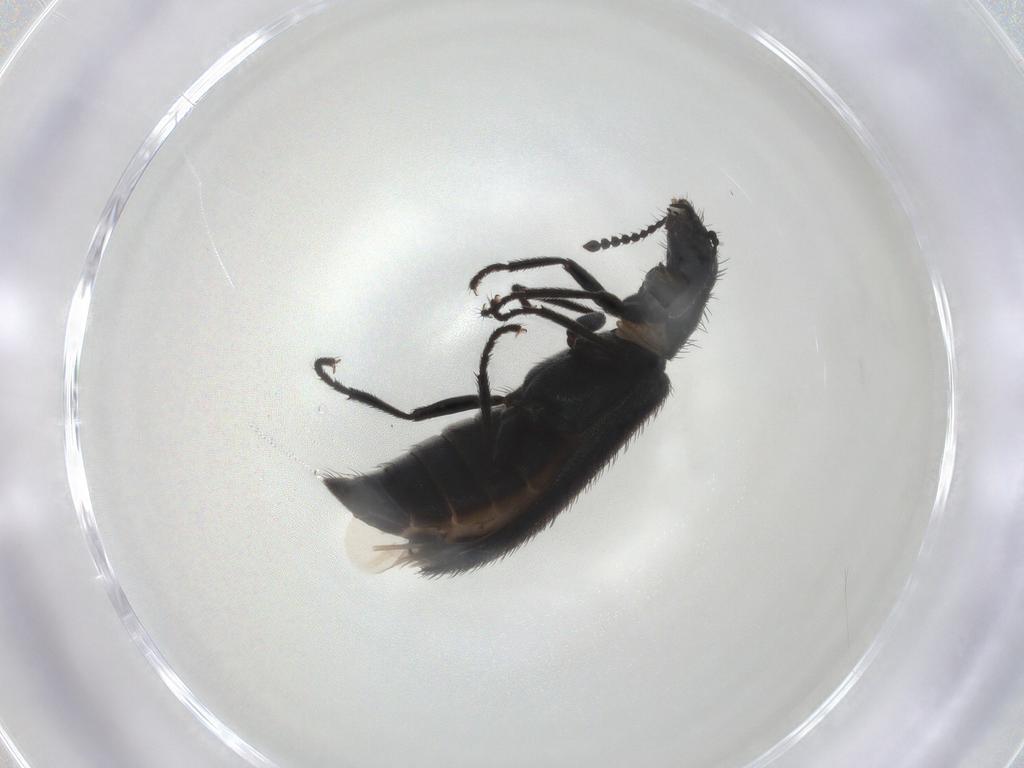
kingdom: Animalia
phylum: Arthropoda
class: Insecta
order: Coleoptera
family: Melyridae
